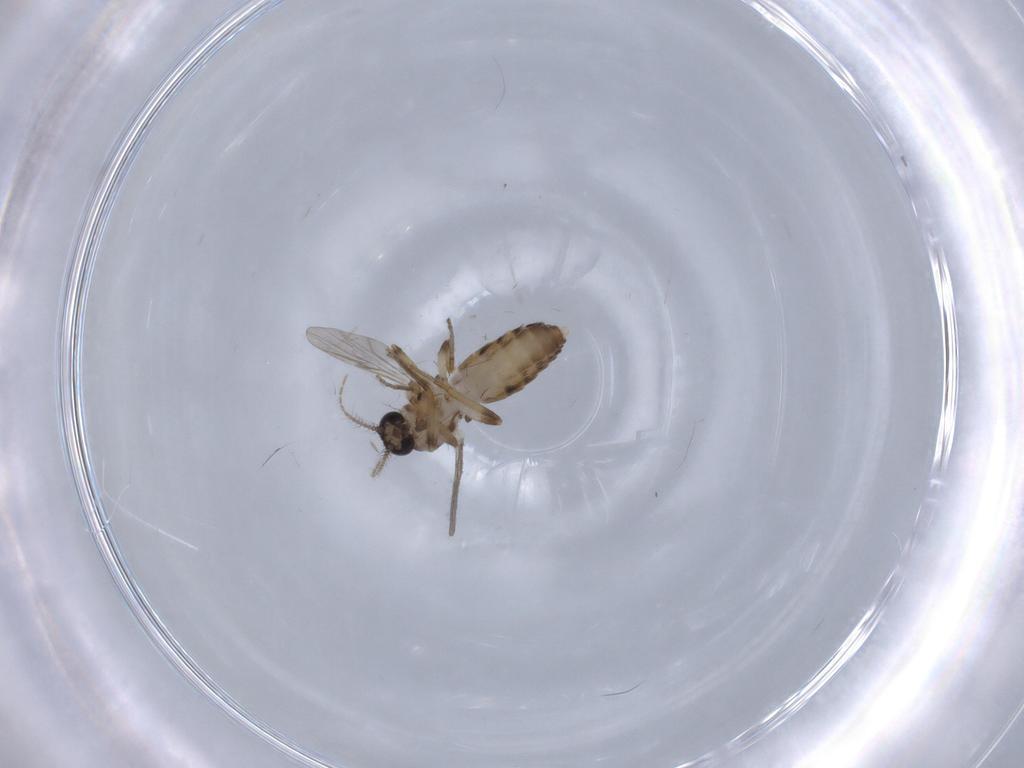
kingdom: Animalia
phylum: Arthropoda
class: Insecta
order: Diptera
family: Ceratopogonidae
